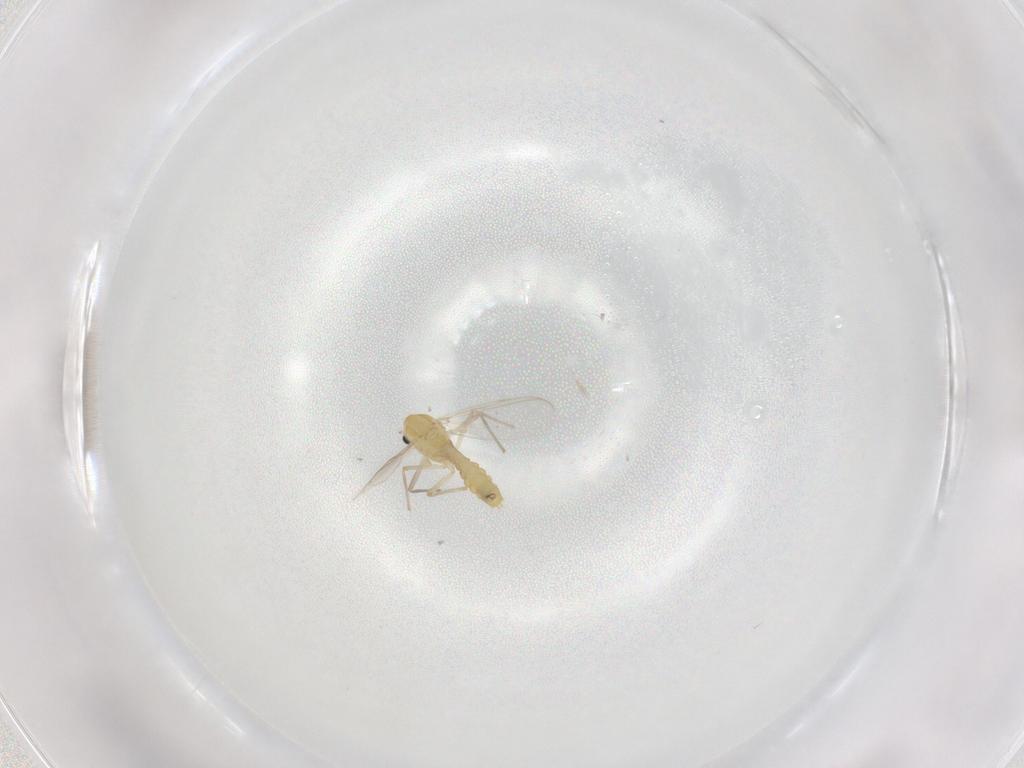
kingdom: Animalia
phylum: Arthropoda
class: Insecta
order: Diptera
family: Chironomidae
